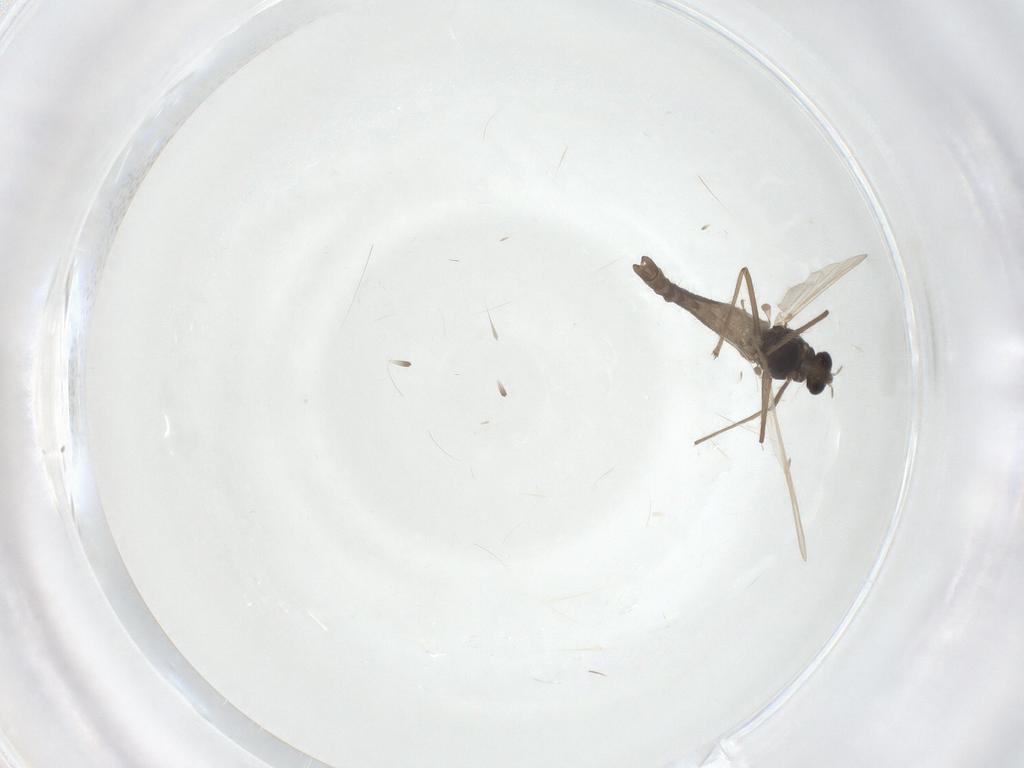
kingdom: Animalia
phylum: Arthropoda
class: Insecta
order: Diptera
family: Chironomidae
